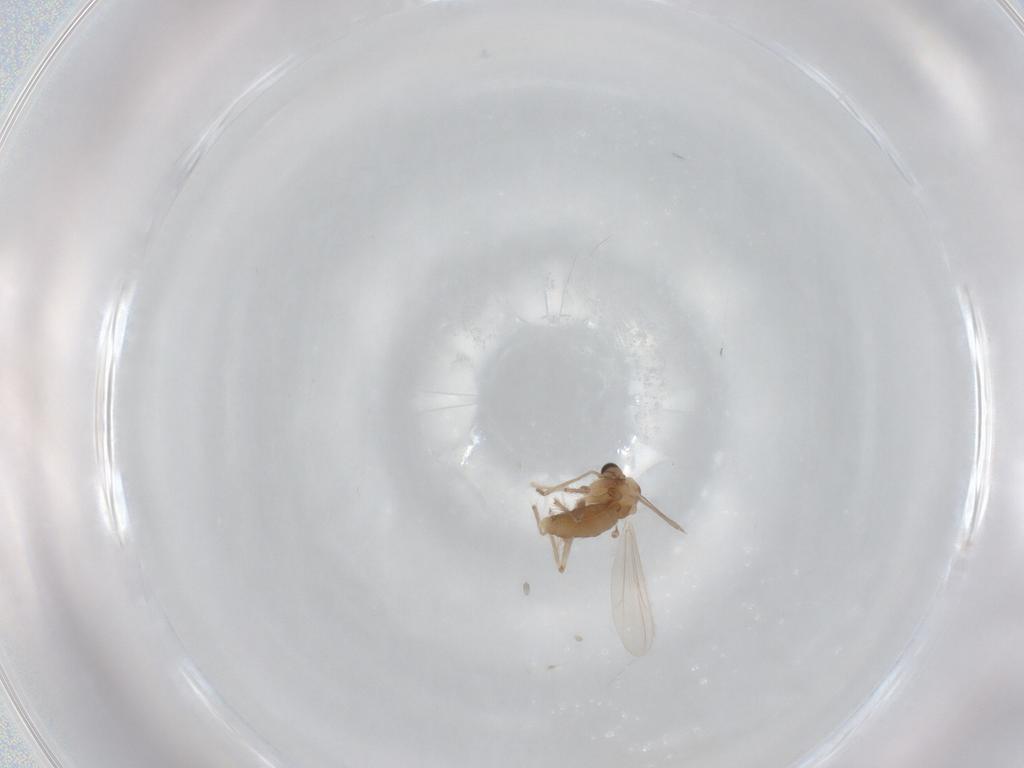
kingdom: Animalia
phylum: Arthropoda
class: Insecta
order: Diptera
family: Chironomidae
